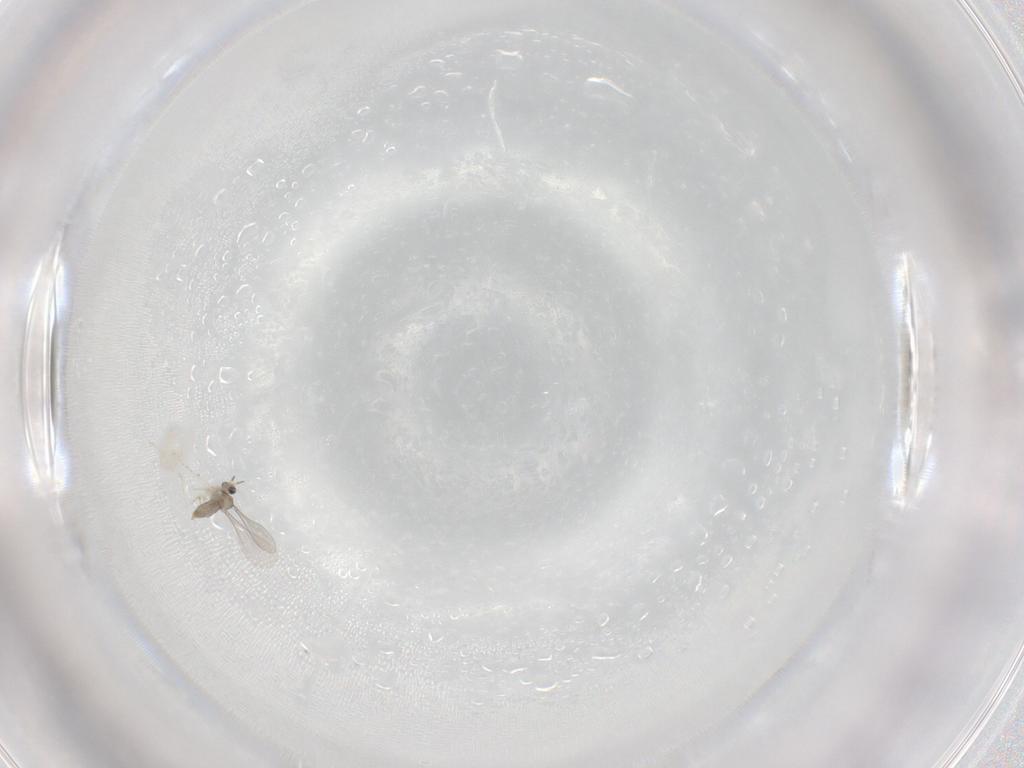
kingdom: Animalia
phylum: Arthropoda
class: Insecta
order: Diptera
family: Cecidomyiidae
